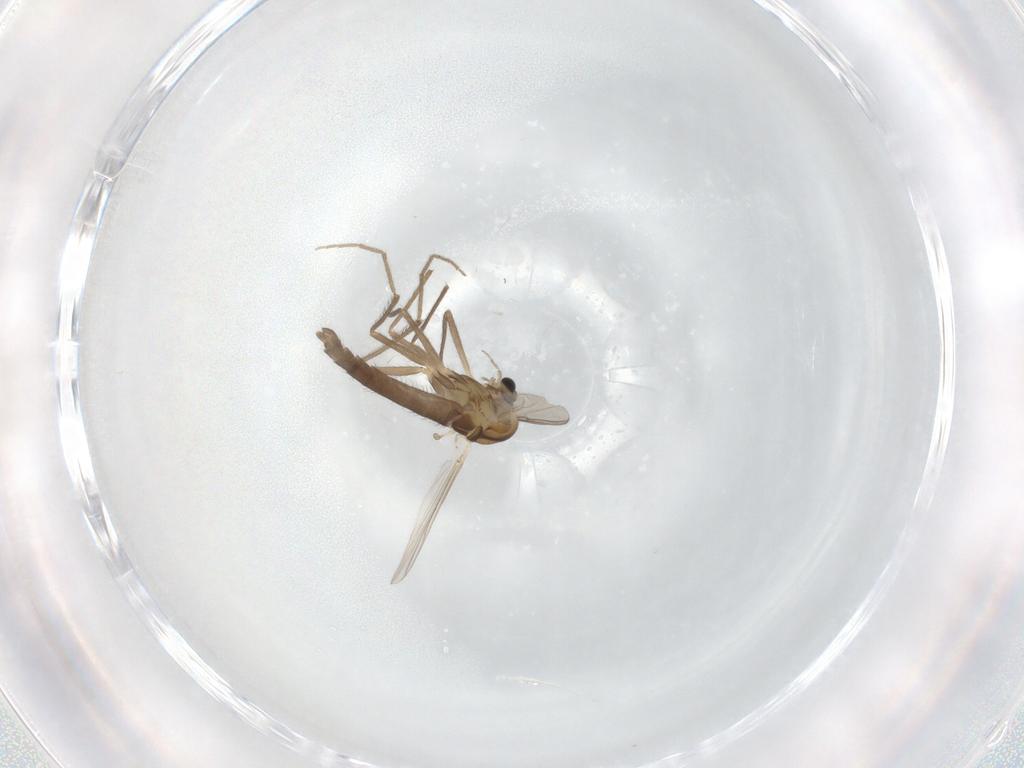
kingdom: Animalia
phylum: Arthropoda
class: Insecta
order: Diptera
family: Chironomidae
